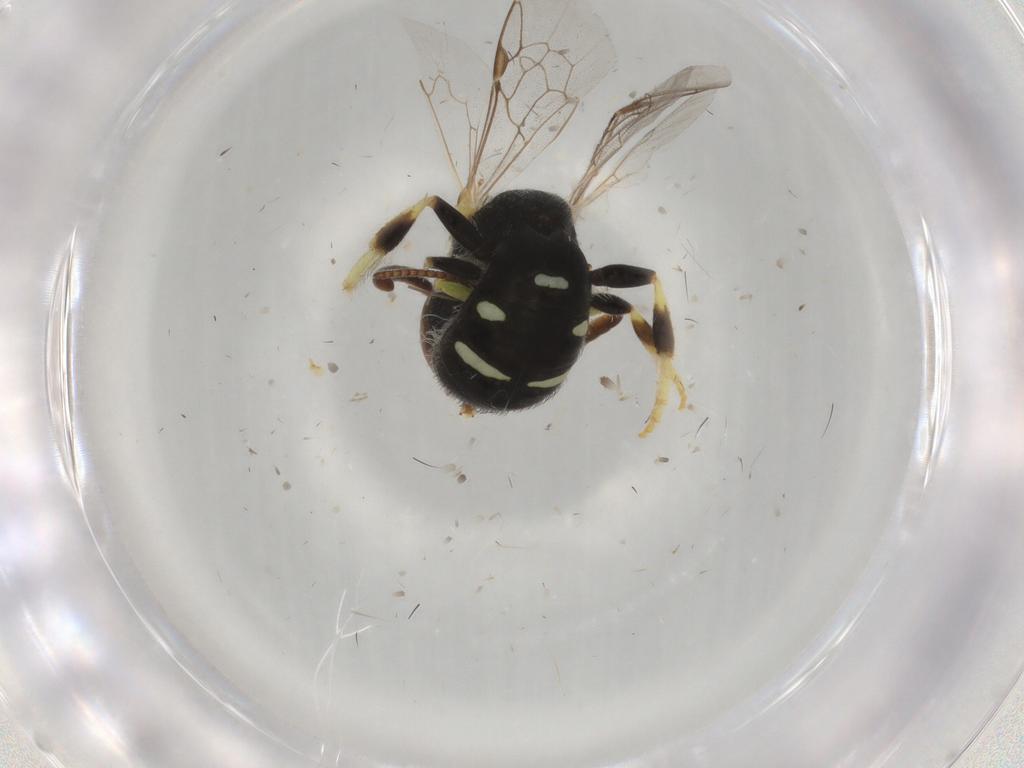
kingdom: Animalia
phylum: Arthropoda
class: Insecta
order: Hymenoptera
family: Halictidae
